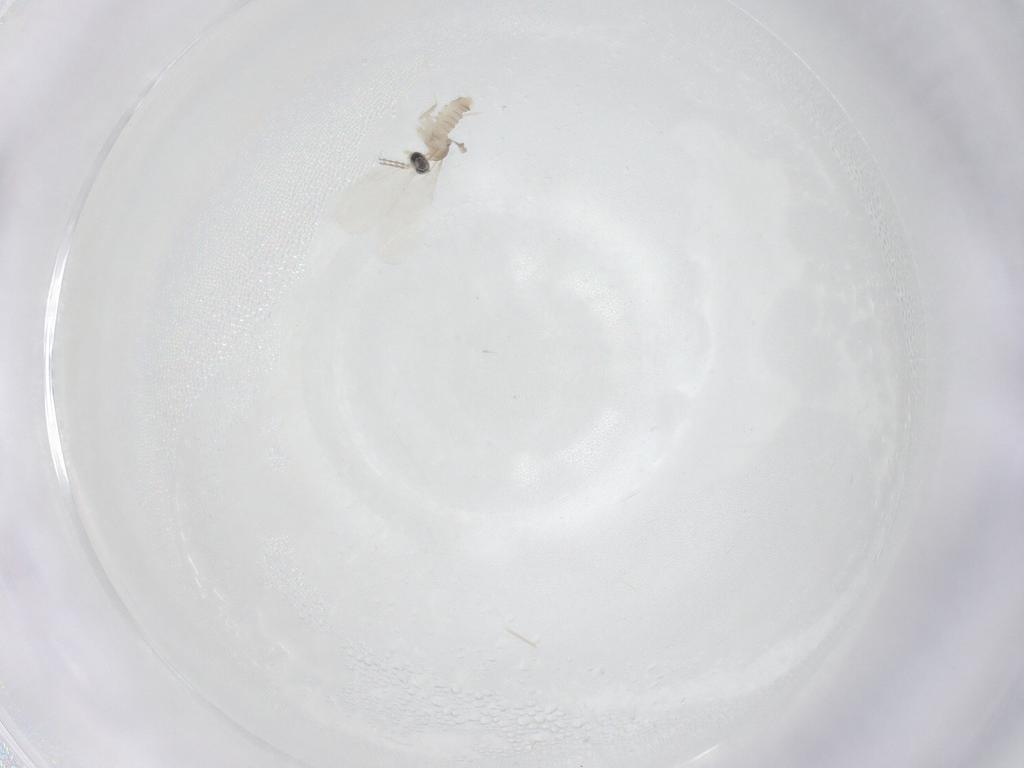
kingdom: Animalia
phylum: Arthropoda
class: Insecta
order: Diptera
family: Cecidomyiidae
